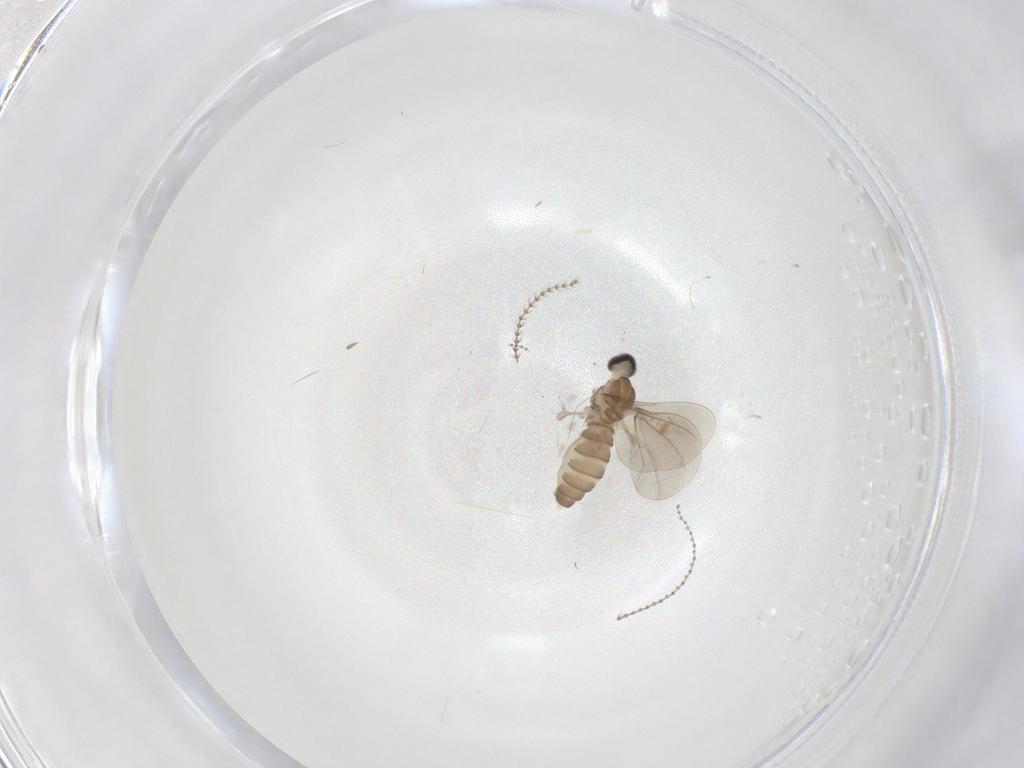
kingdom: Animalia
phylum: Arthropoda
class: Insecta
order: Diptera
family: Cecidomyiidae
